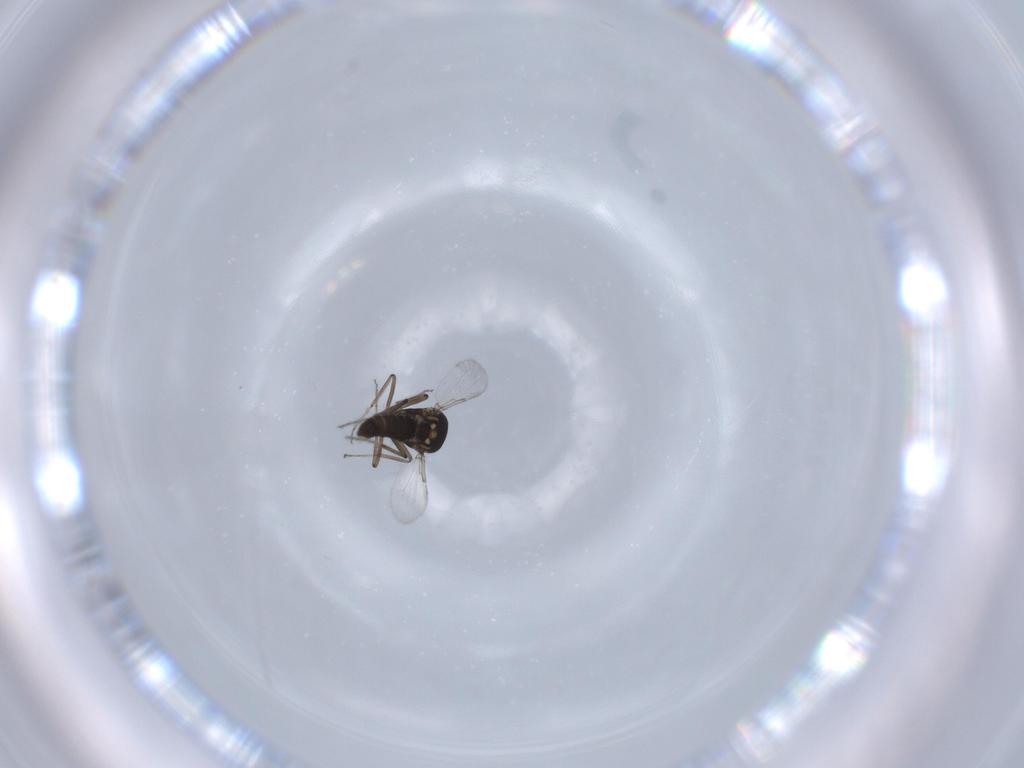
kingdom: Animalia
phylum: Arthropoda
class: Insecta
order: Diptera
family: Ceratopogonidae
